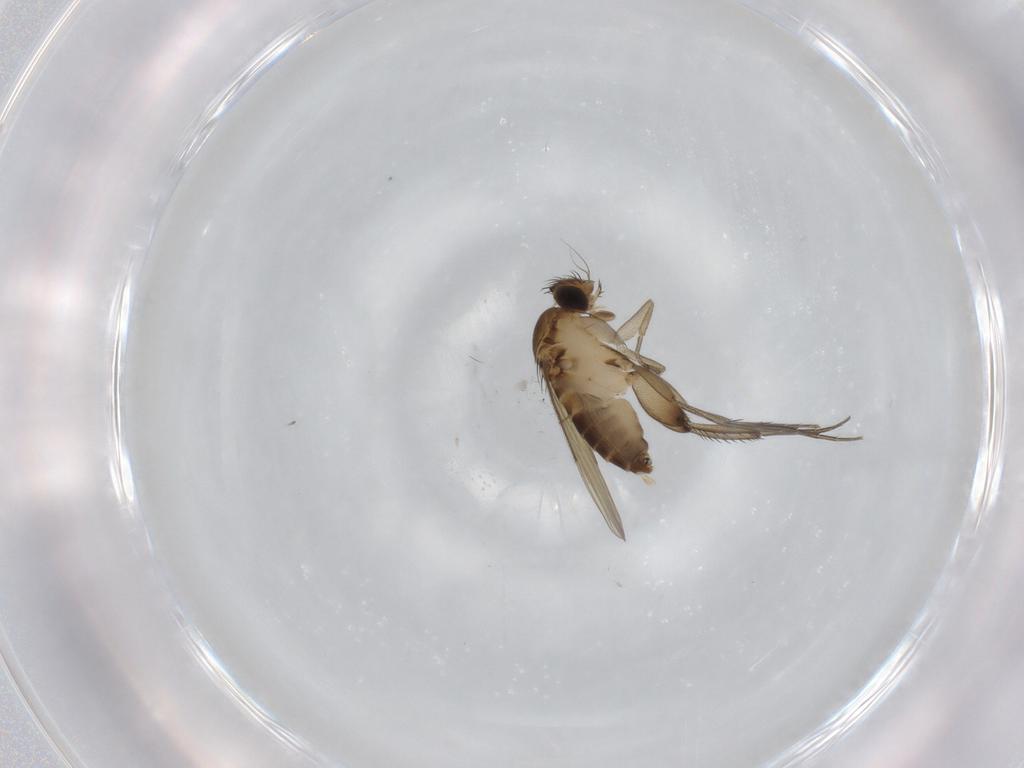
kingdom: Animalia
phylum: Arthropoda
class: Insecta
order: Diptera
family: Phoridae
